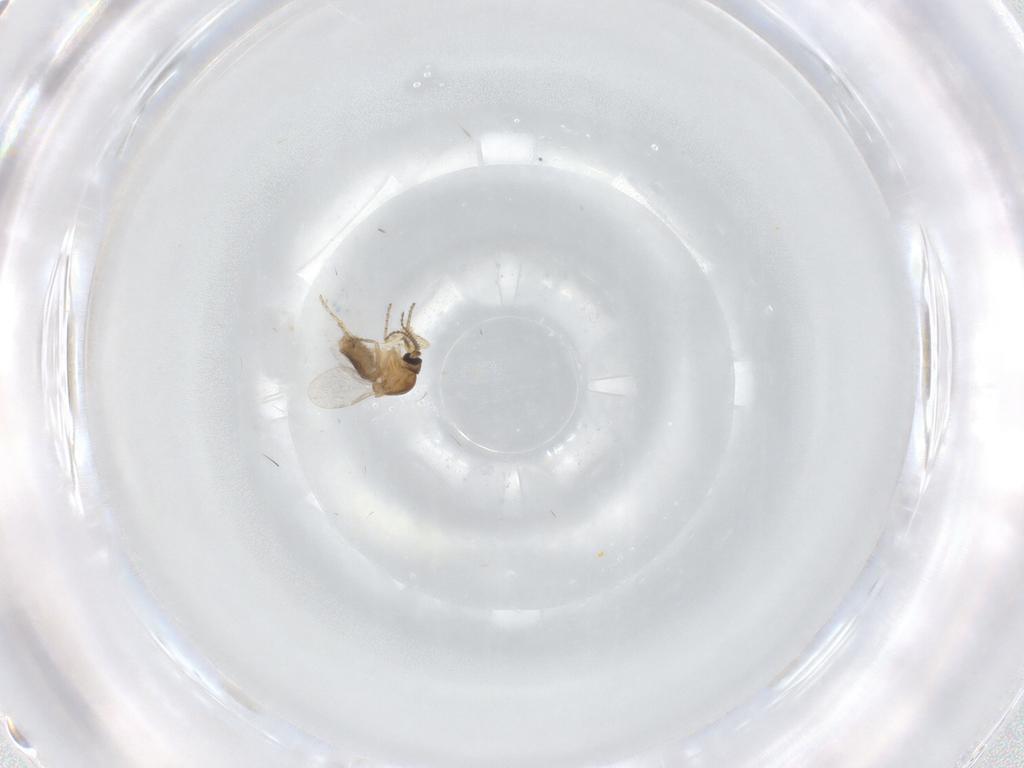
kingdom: Animalia
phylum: Arthropoda
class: Insecta
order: Diptera
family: Ceratopogonidae
